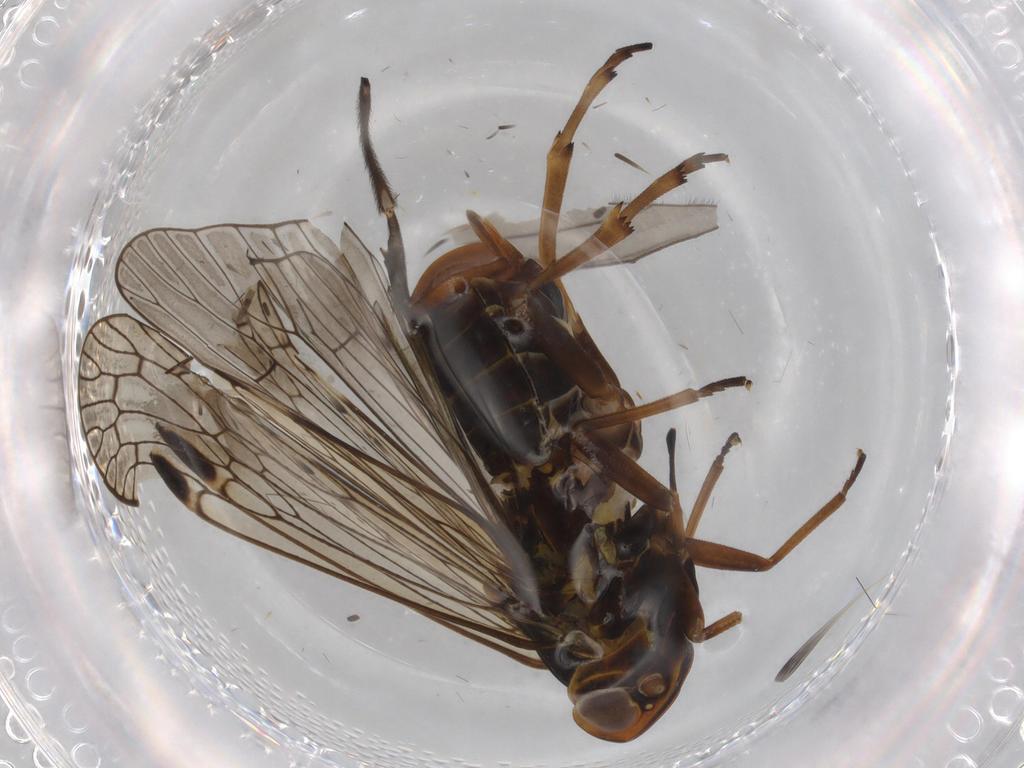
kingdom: Animalia
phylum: Arthropoda
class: Insecta
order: Hemiptera
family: Cixiidae
